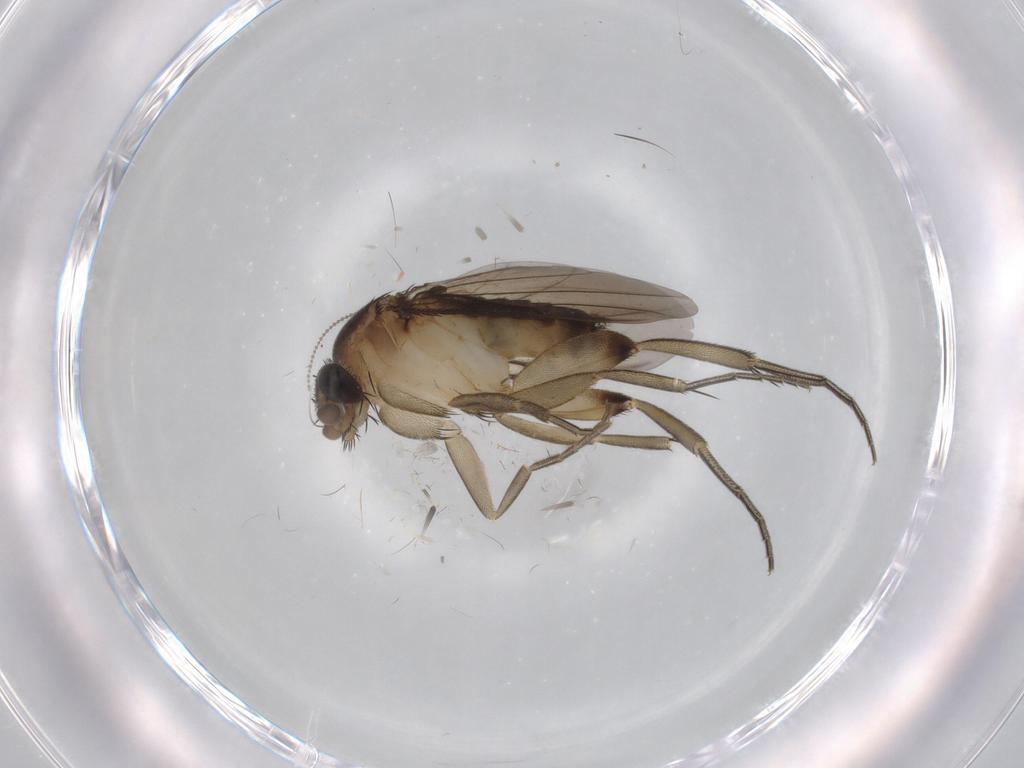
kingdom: Animalia
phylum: Arthropoda
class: Insecta
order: Diptera
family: Phoridae
